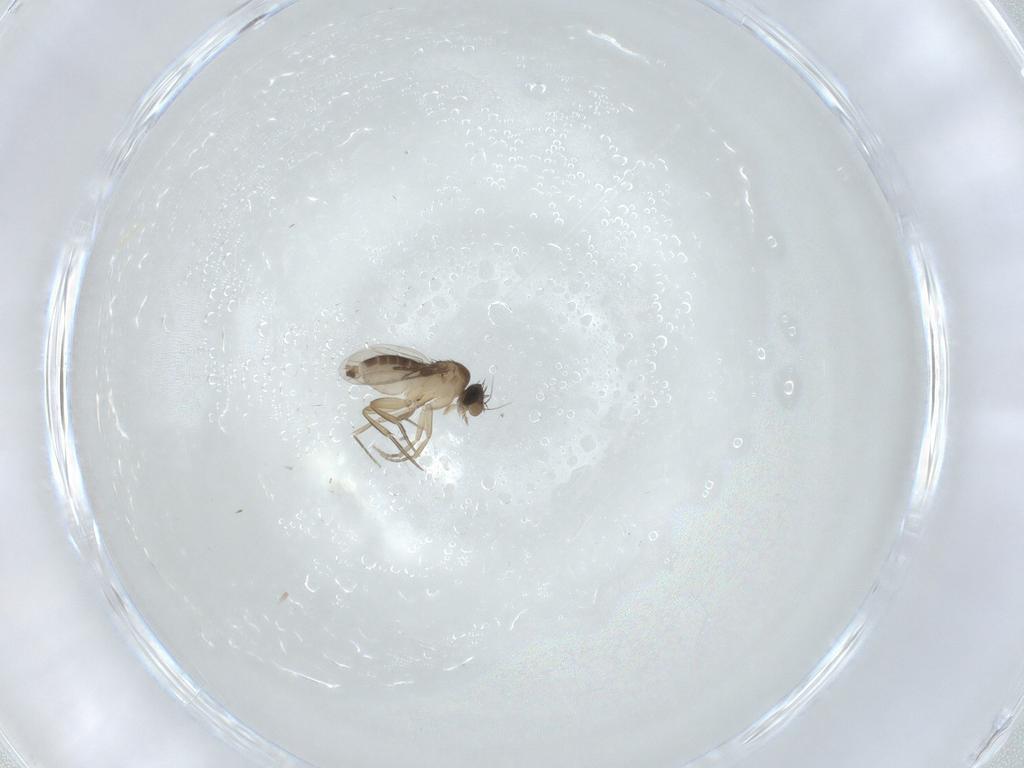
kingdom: Animalia
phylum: Arthropoda
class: Insecta
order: Diptera
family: Phoridae
